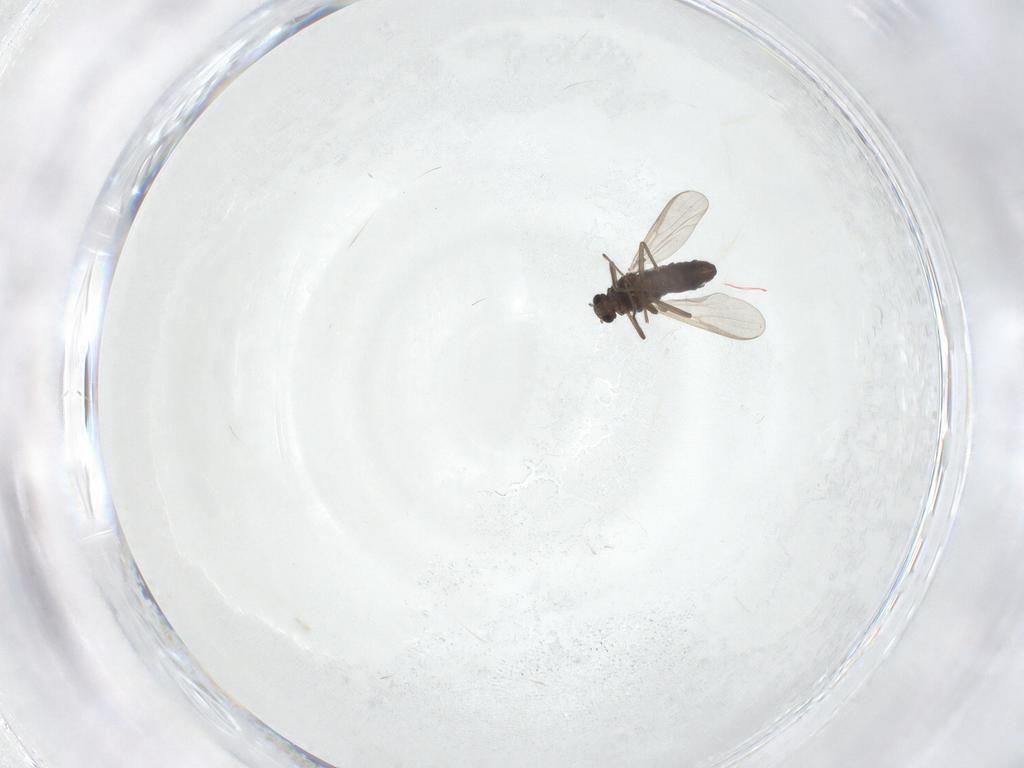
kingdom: Animalia
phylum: Arthropoda
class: Insecta
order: Diptera
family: Chironomidae
